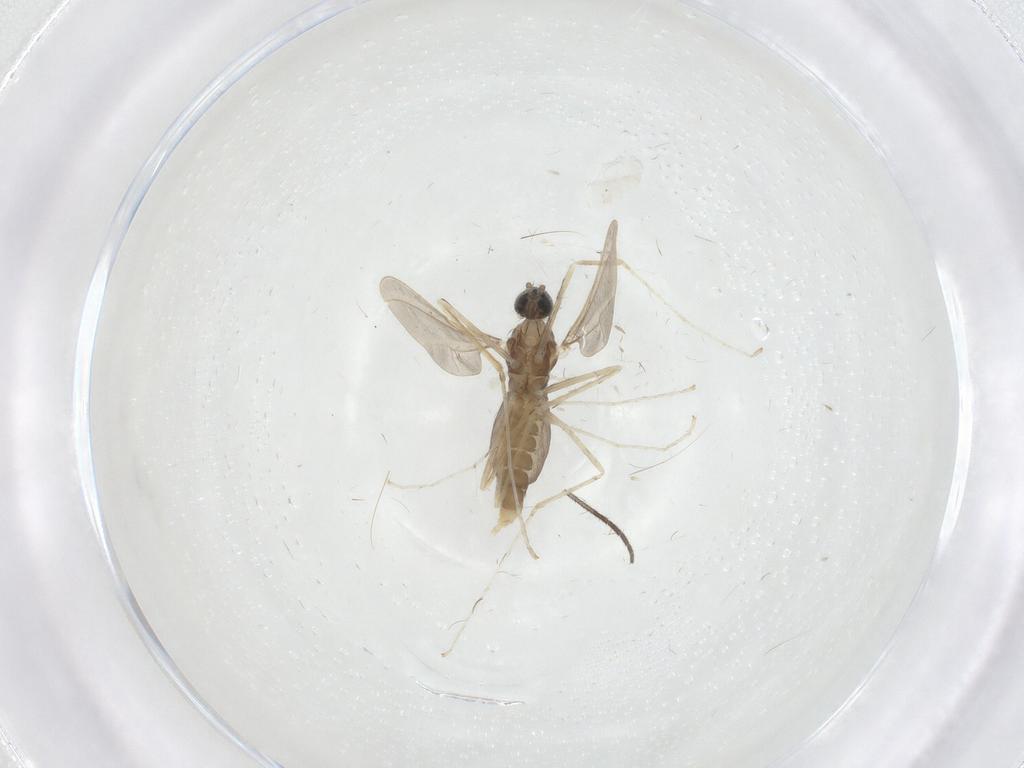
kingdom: Animalia
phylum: Arthropoda
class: Insecta
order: Diptera
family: Cecidomyiidae
